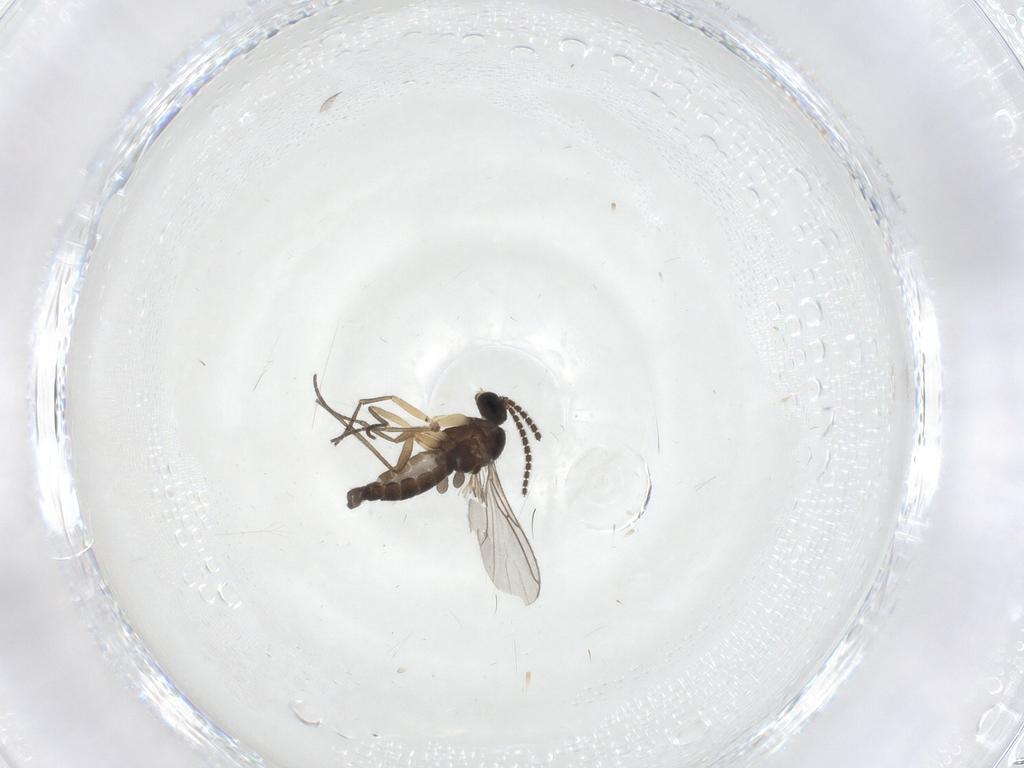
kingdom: Animalia
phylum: Arthropoda
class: Insecta
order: Diptera
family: Sciaridae
